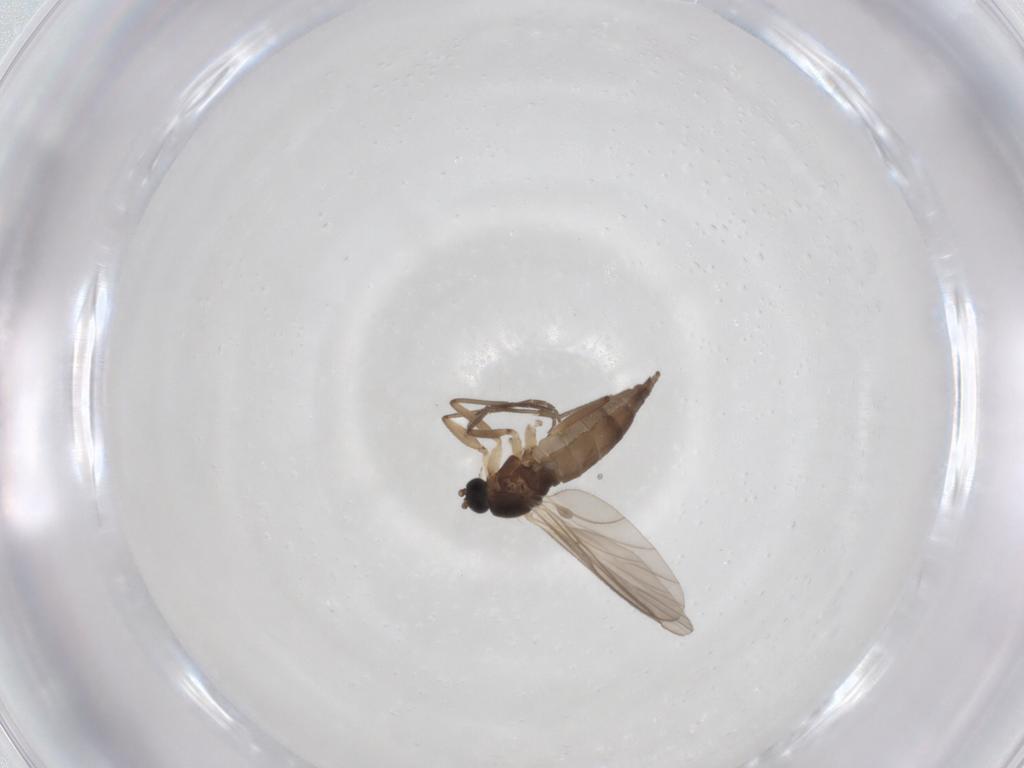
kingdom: Animalia
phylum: Arthropoda
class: Insecta
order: Diptera
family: Sciaridae
